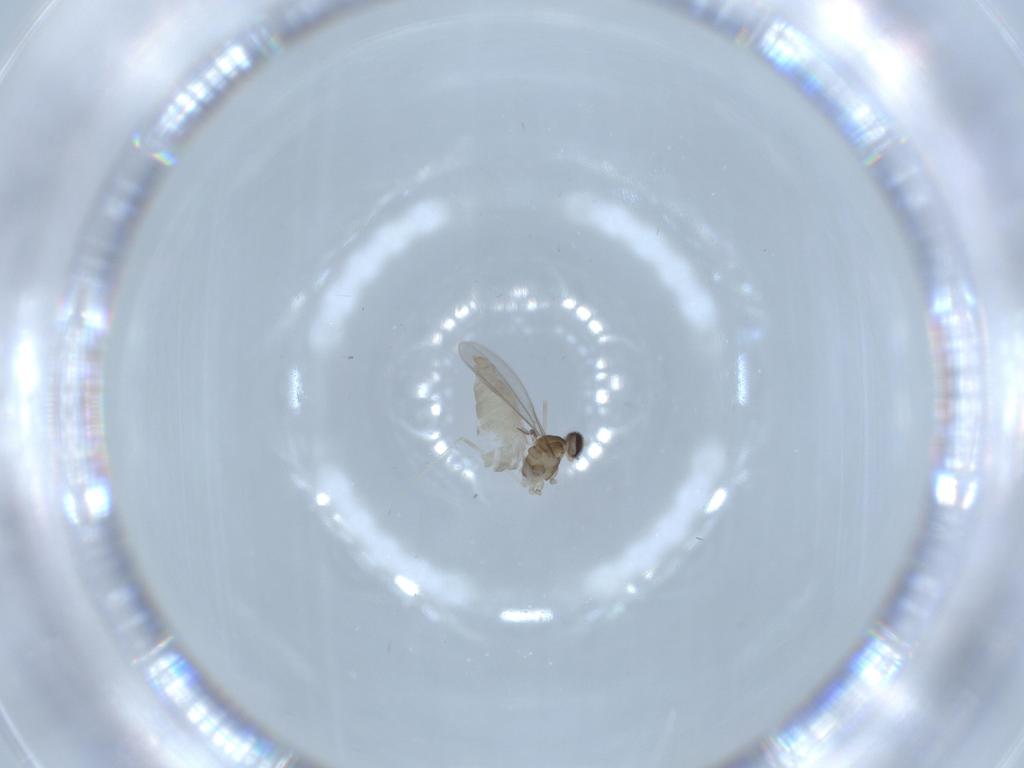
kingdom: Animalia
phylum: Arthropoda
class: Insecta
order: Diptera
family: Cecidomyiidae
